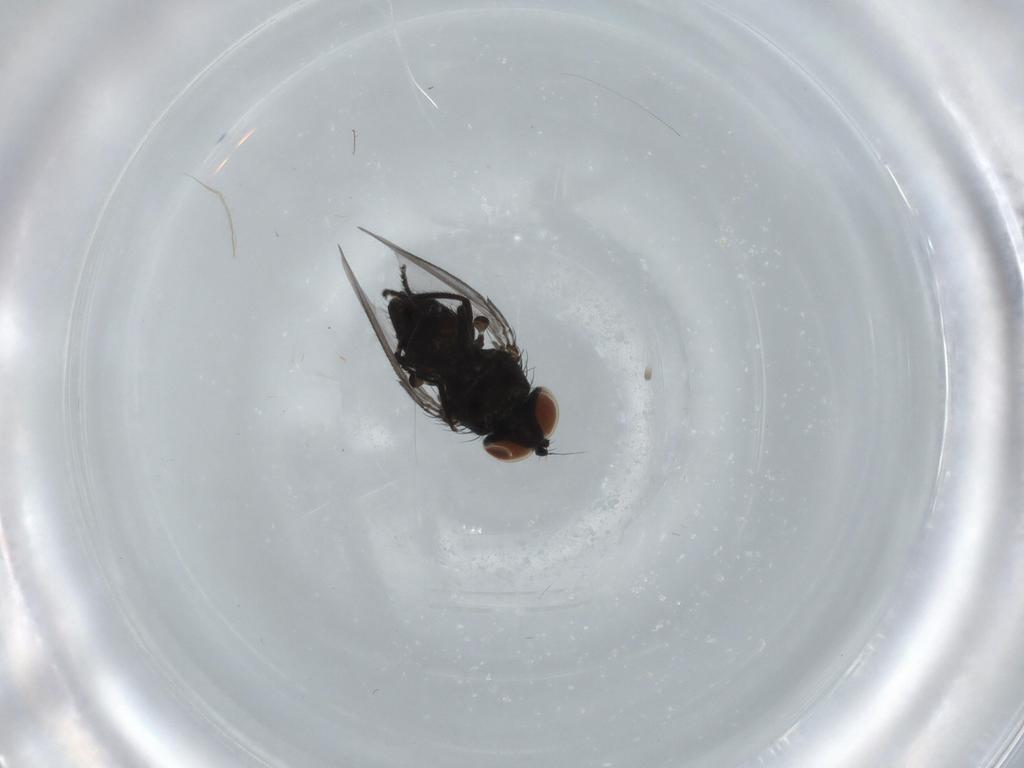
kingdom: Animalia
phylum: Arthropoda
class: Insecta
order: Diptera
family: Milichiidae
